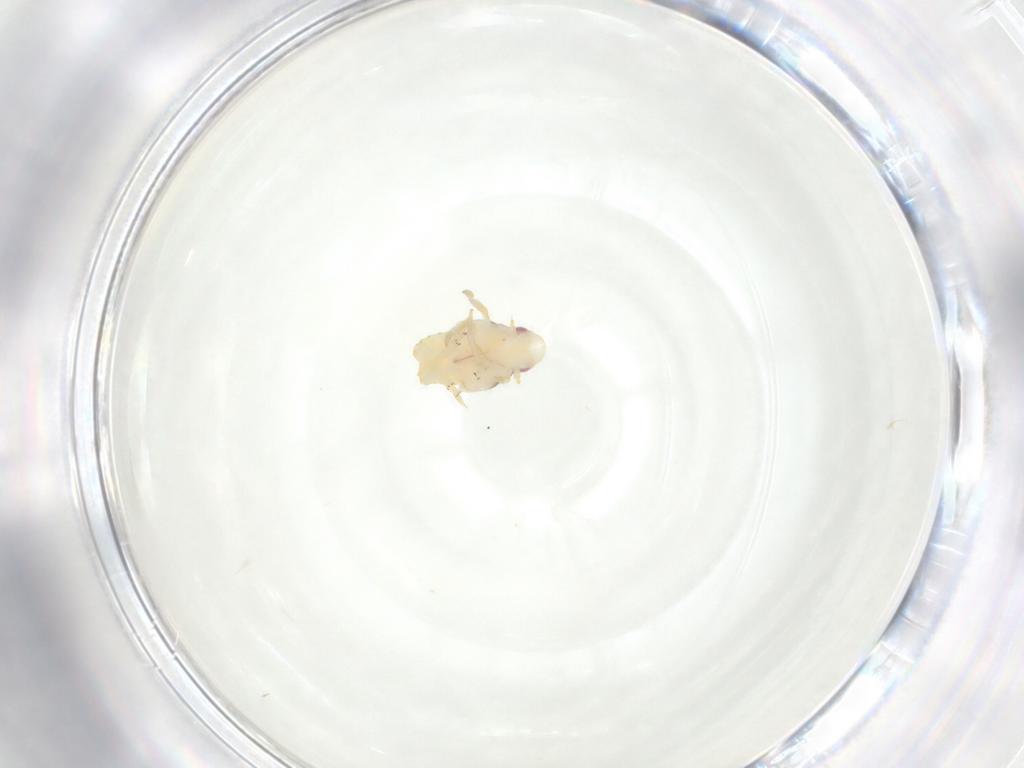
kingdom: Animalia
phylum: Arthropoda
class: Insecta
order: Hemiptera
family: Flatidae
